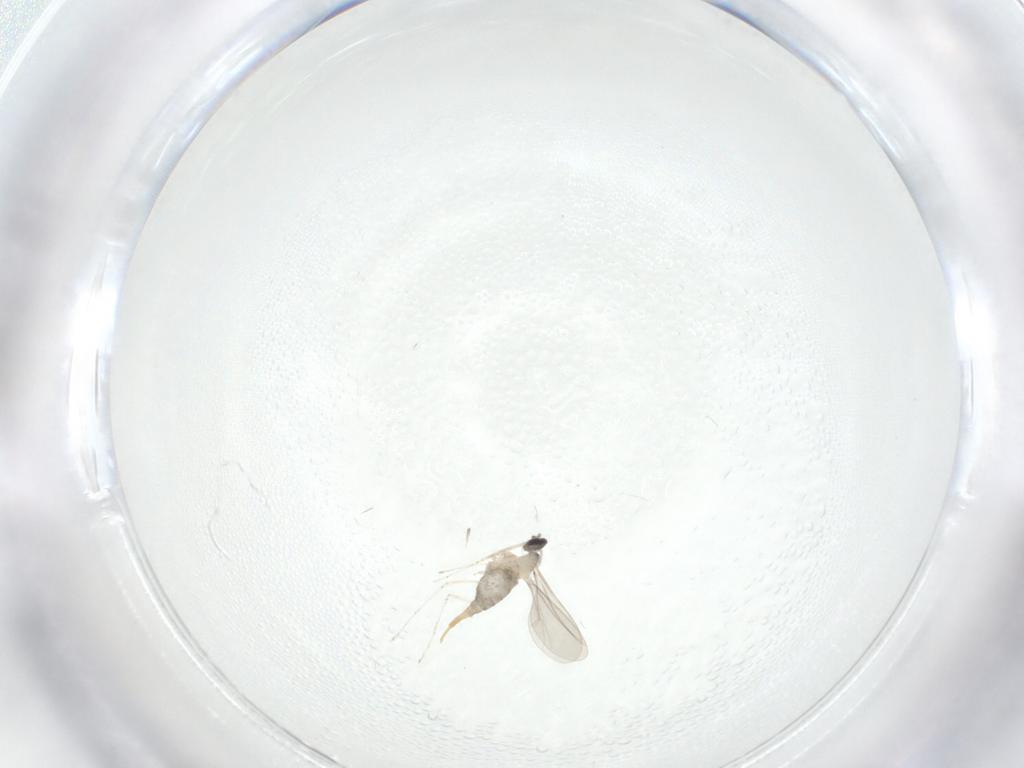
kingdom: Animalia
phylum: Arthropoda
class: Insecta
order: Diptera
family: Cecidomyiidae
